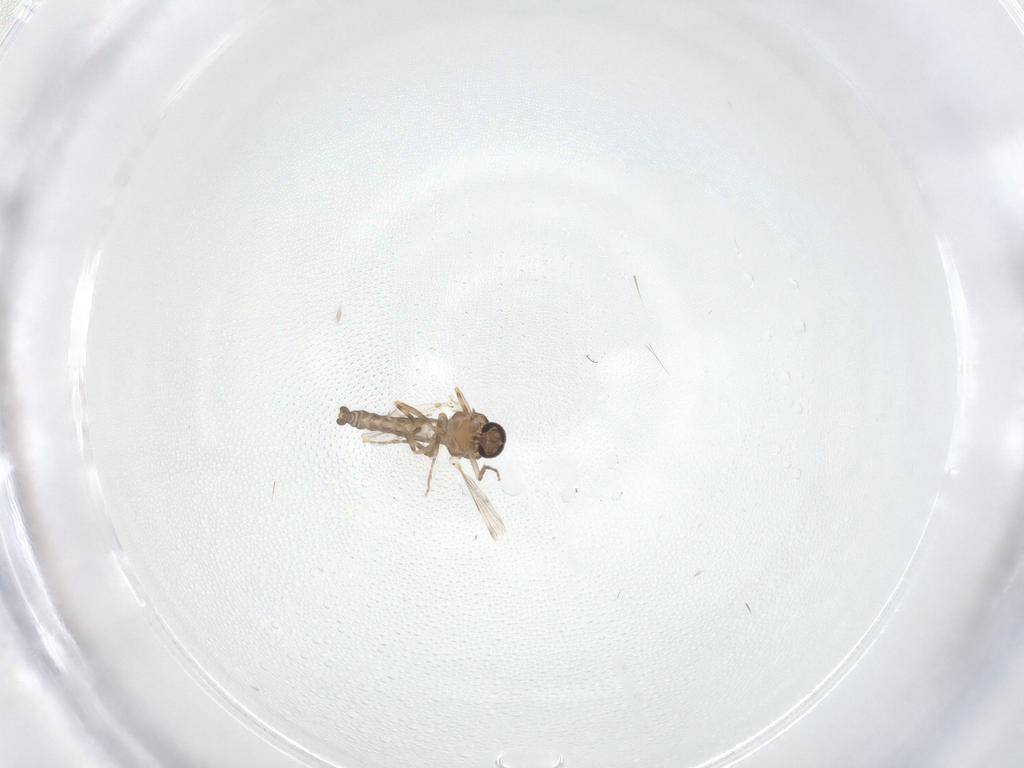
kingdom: Animalia
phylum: Arthropoda
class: Insecta
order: Diptera
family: Ceratopogonidae
